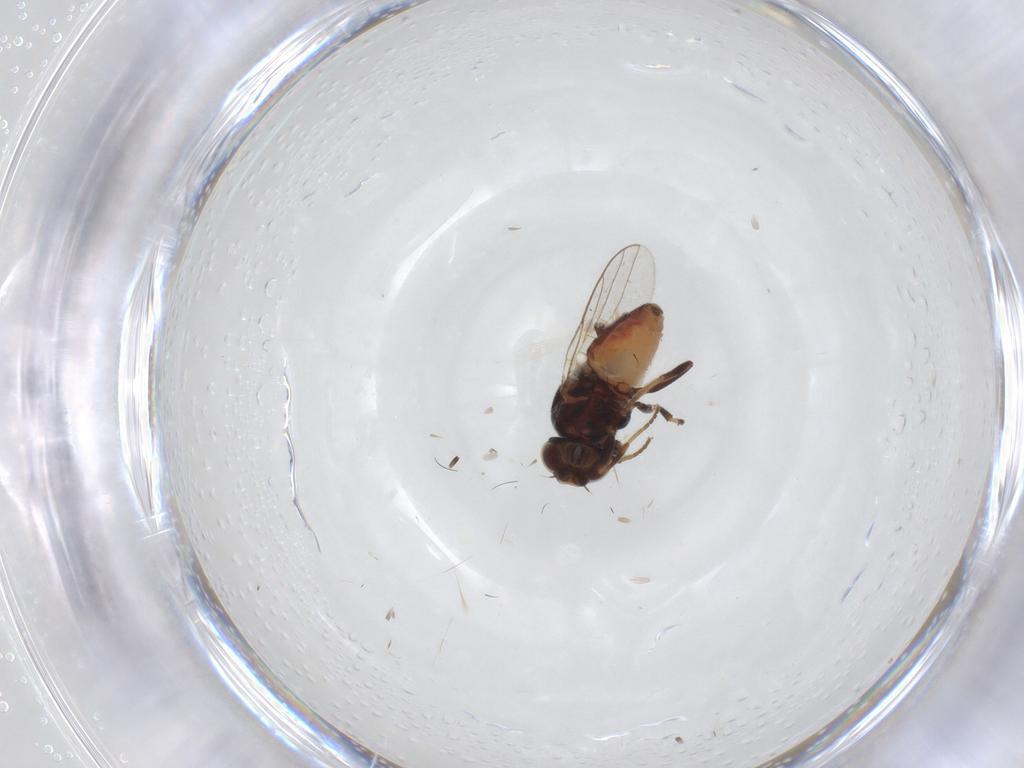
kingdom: Animalia
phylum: Arthropoda
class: Insecta
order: Diptera
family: Chloropidae
